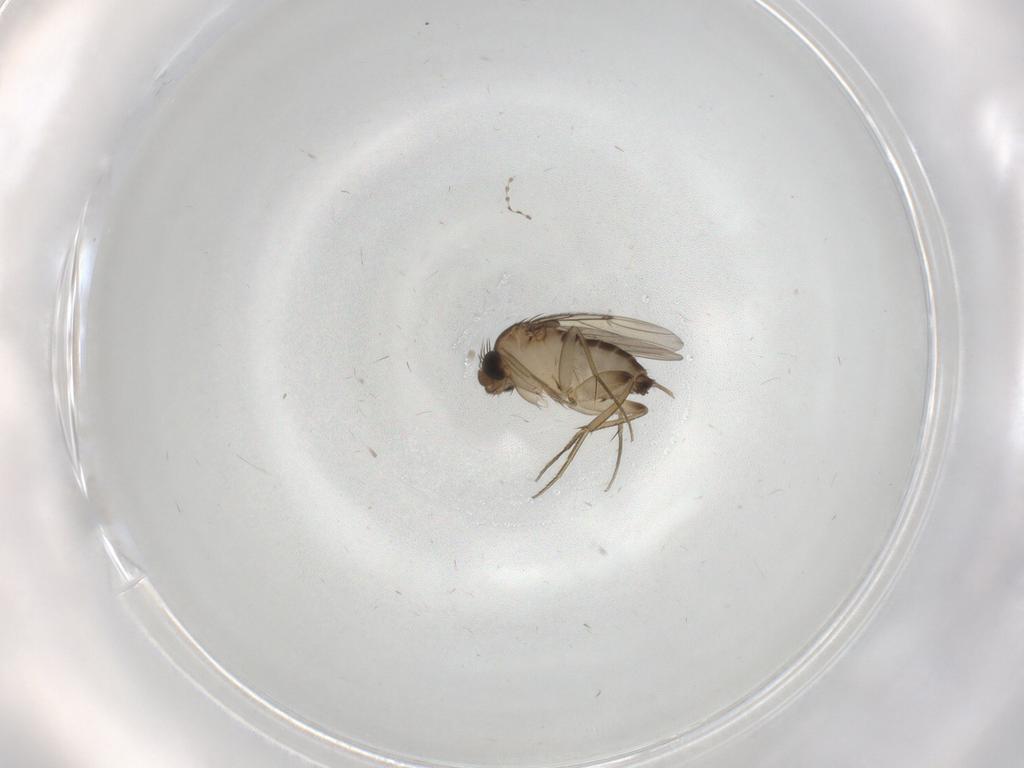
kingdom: Animalia
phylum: Arthropoda
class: Insecta
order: Diptera
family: Phoridae
